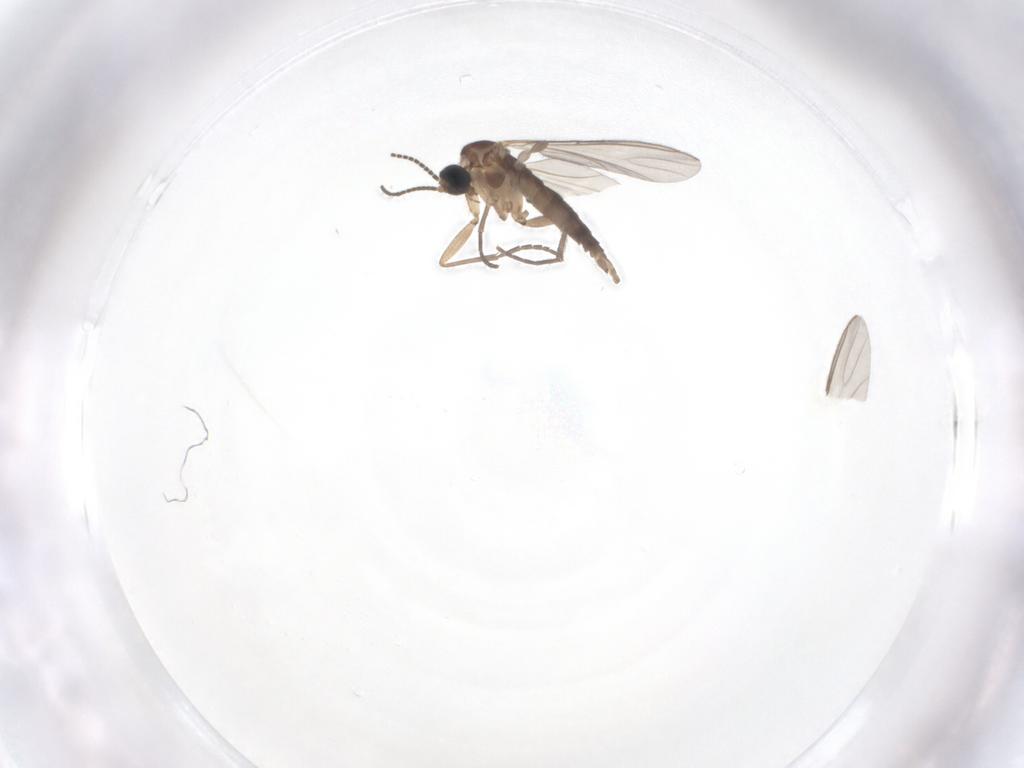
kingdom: Animalia
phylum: Arthropoda
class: Insecta
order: Diptera
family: Sciaridae
